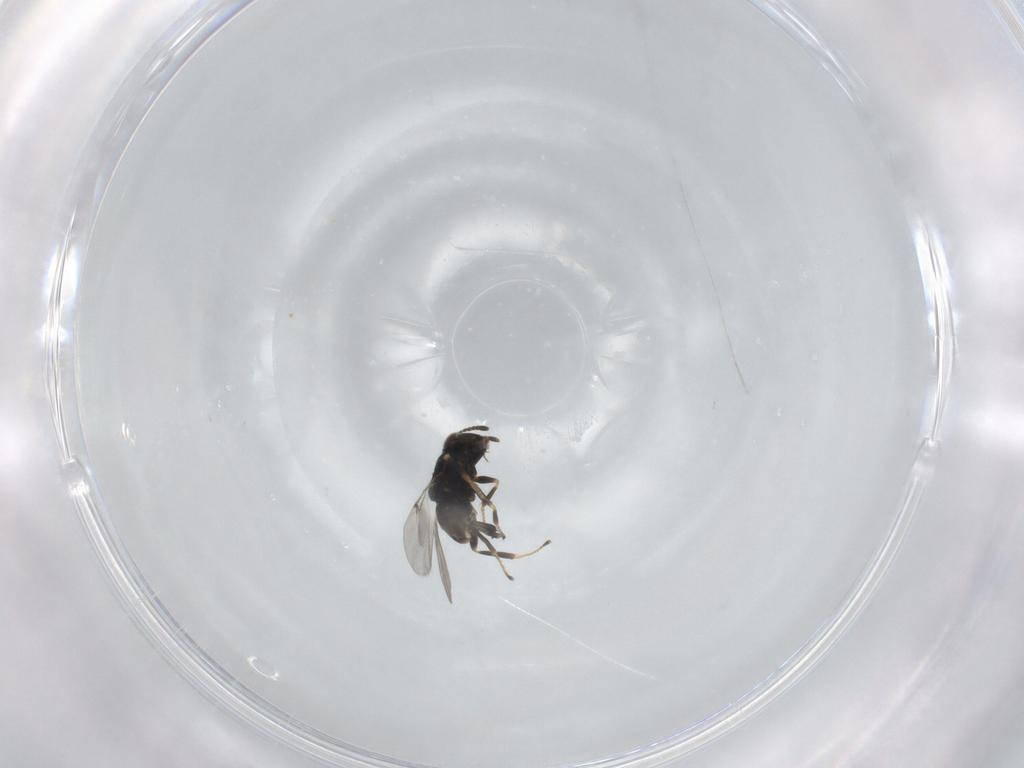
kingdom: Animalia
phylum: Arthropoda
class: Insecta
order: Hymenoptera
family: Encyrtidae
